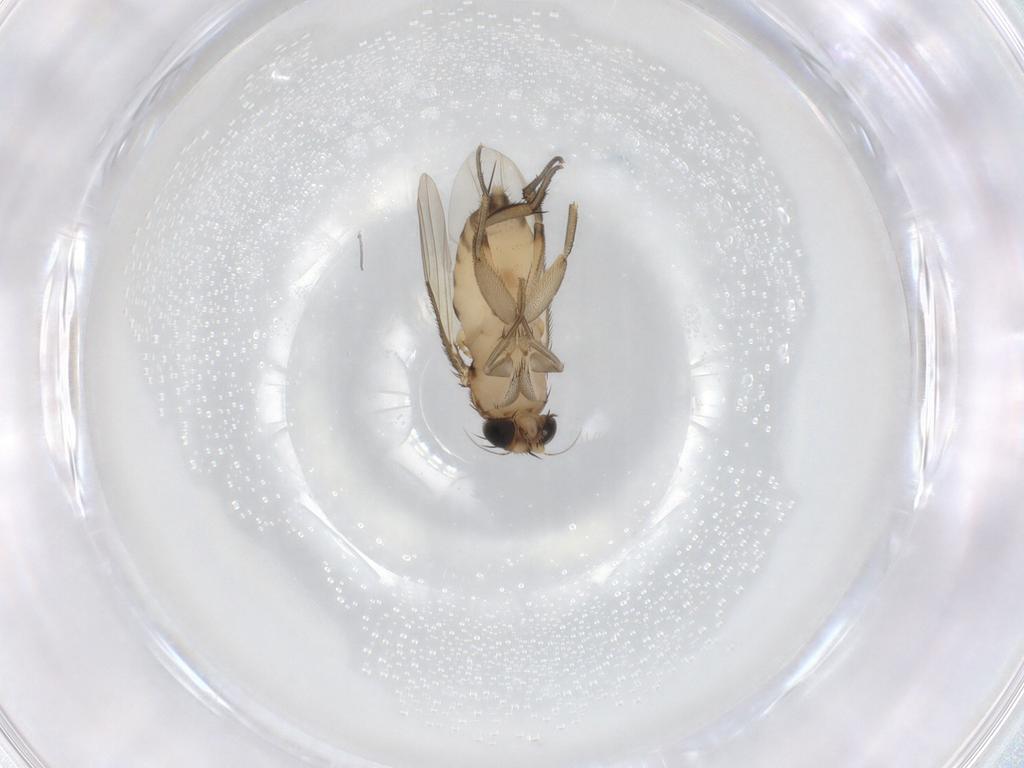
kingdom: Animalia
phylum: Arthropoda
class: Insecta
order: Diptera
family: Phoridae
